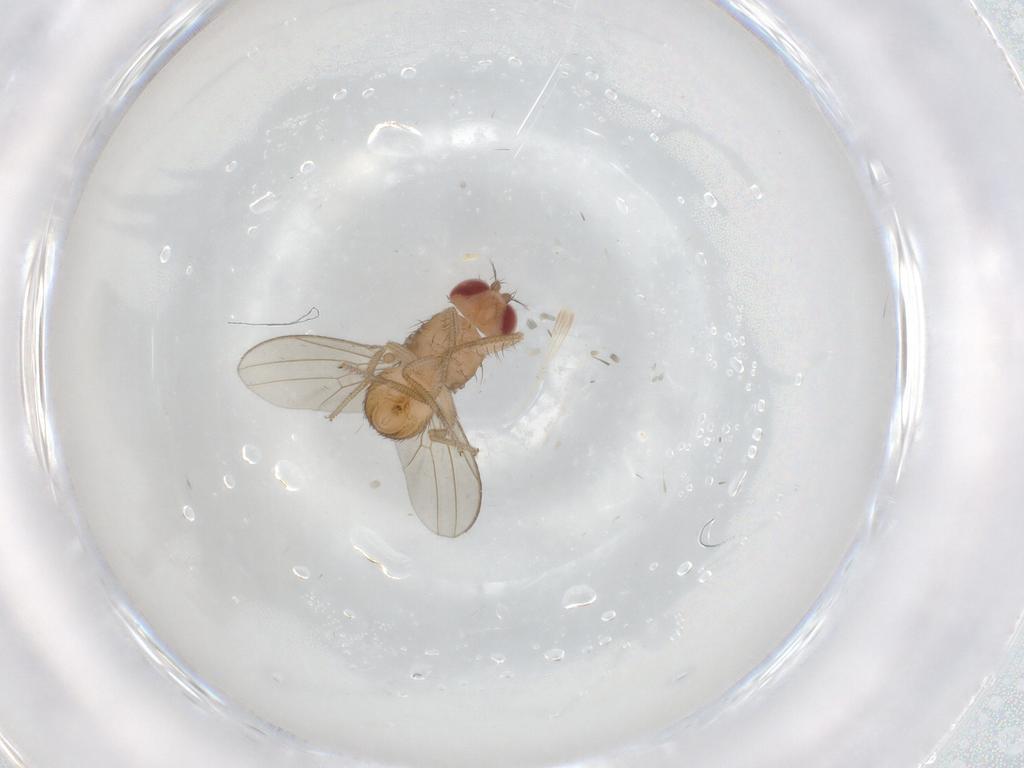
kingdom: Animalia
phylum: Arthropoda
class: Insecta
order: Diptera
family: Drosophilidae
